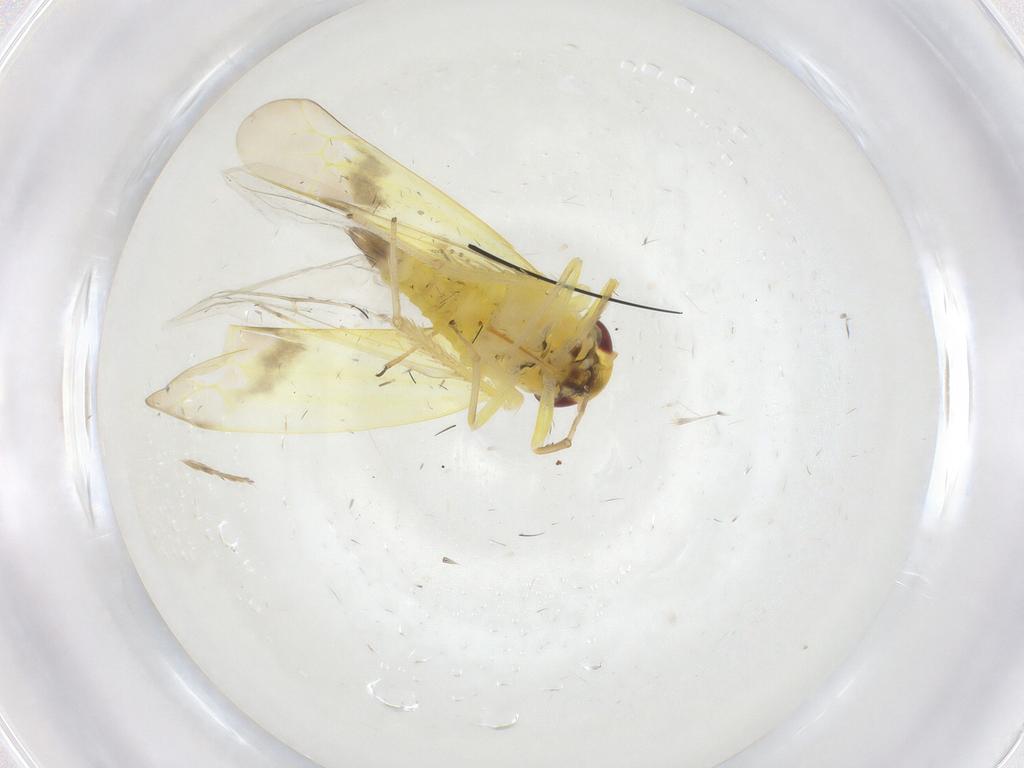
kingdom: Animalia
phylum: Arthropoda
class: Insecta
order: Hemiptera
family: Cicadellidae
